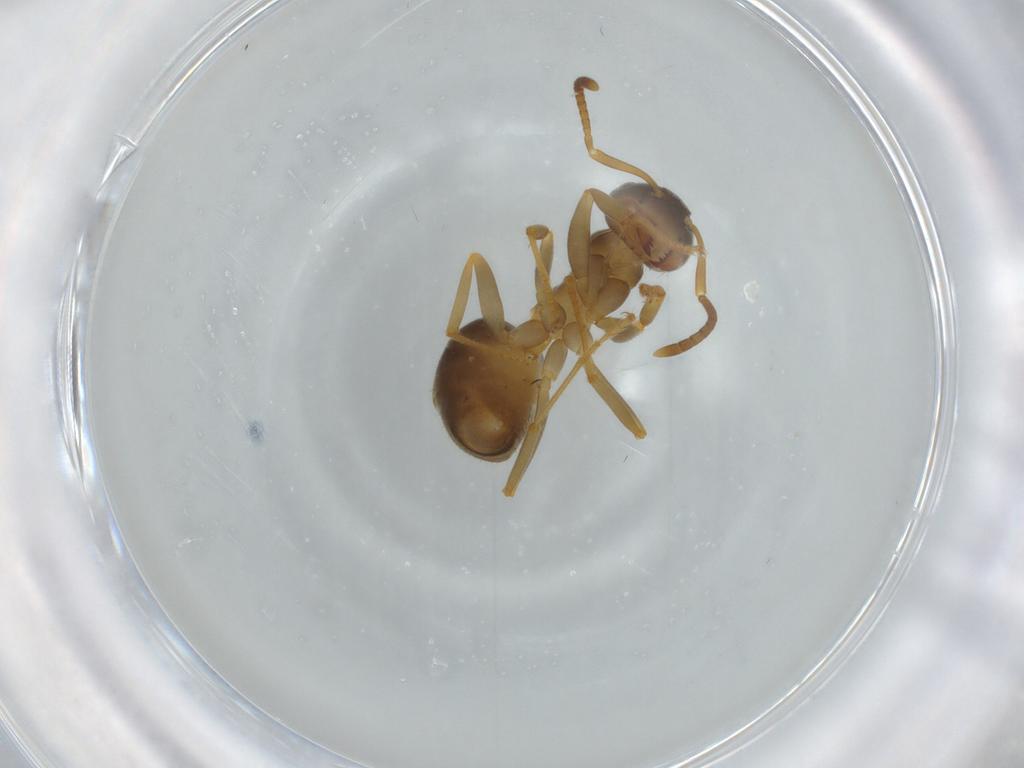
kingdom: Animalia
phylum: Arthropoda
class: Insecta
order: Hymenoptera
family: Formicidae
